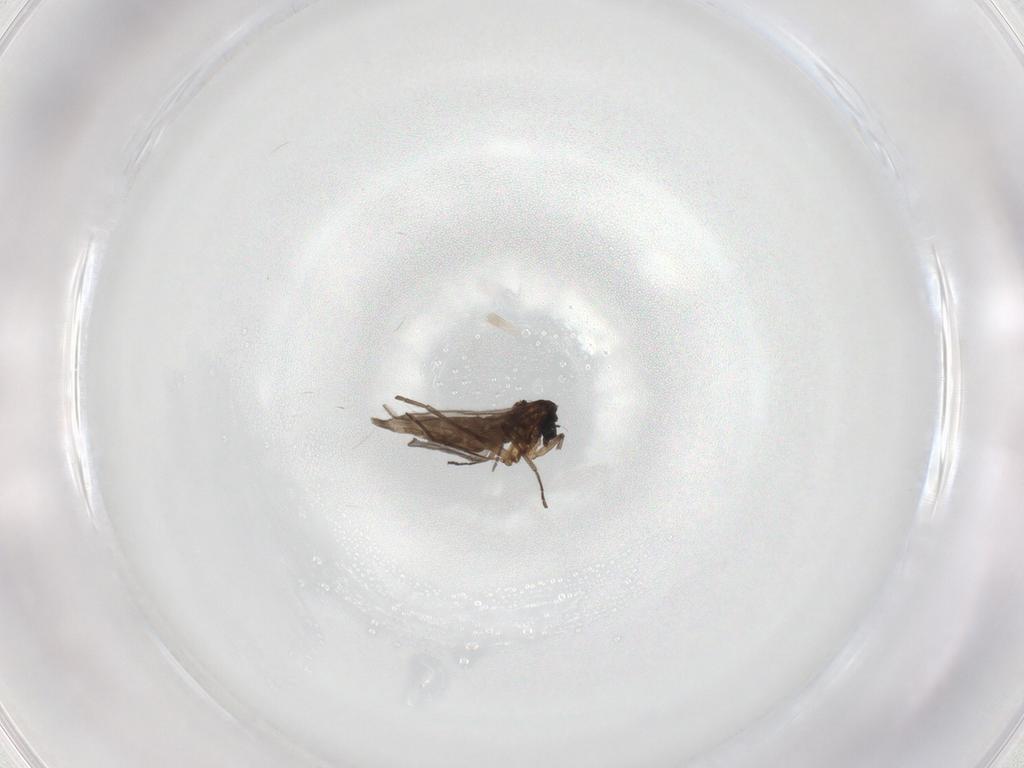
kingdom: Animalia
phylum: Arthropoda
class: Insecta
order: Diptera
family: Sciaridae
